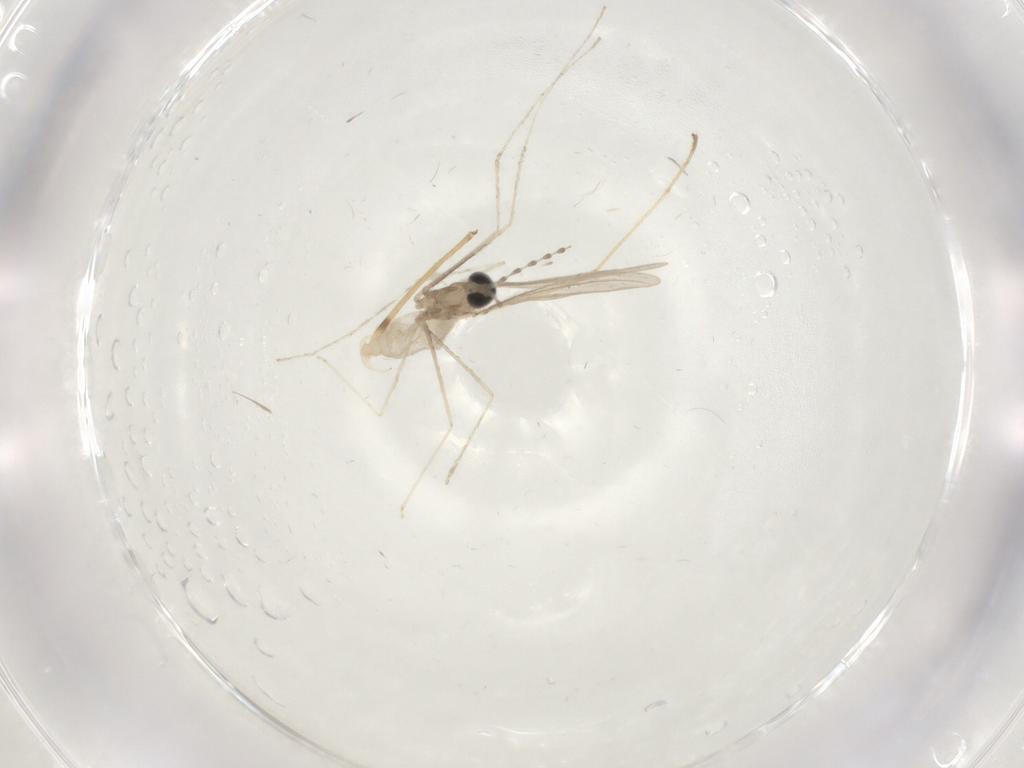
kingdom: Animalia
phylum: Arthropoda
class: Insecta
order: Diptera
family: Cecidomyiidae
